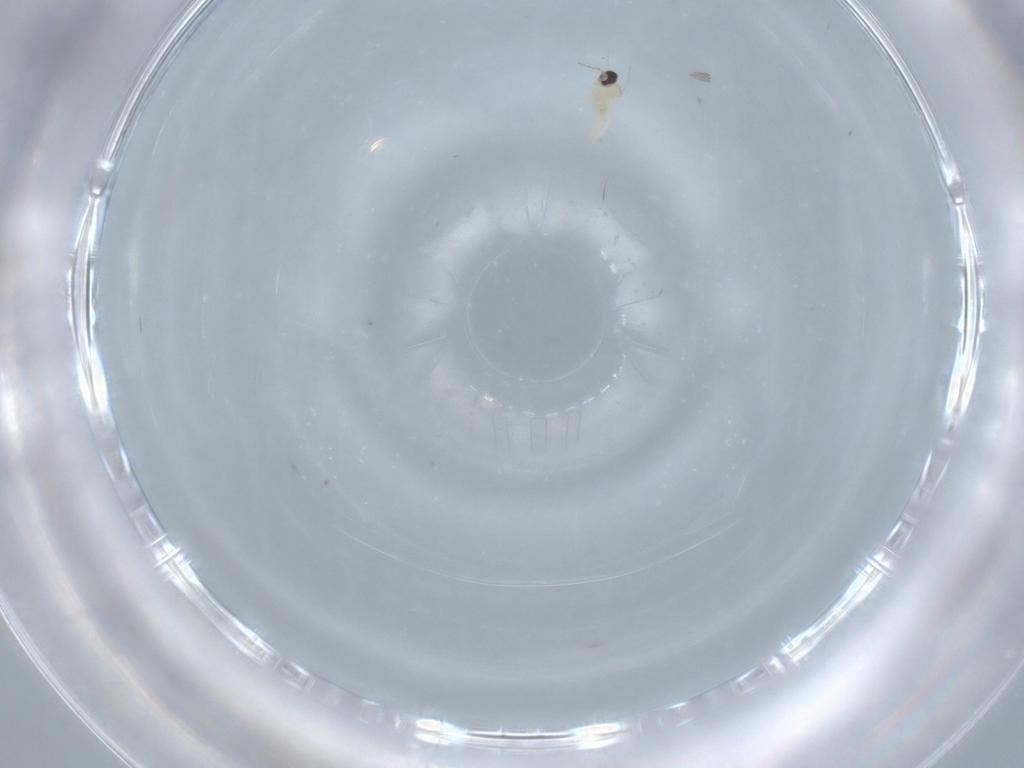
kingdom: Animalia
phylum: Arthropoda
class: Insecta
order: Diptera
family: Cecidomyiidae
